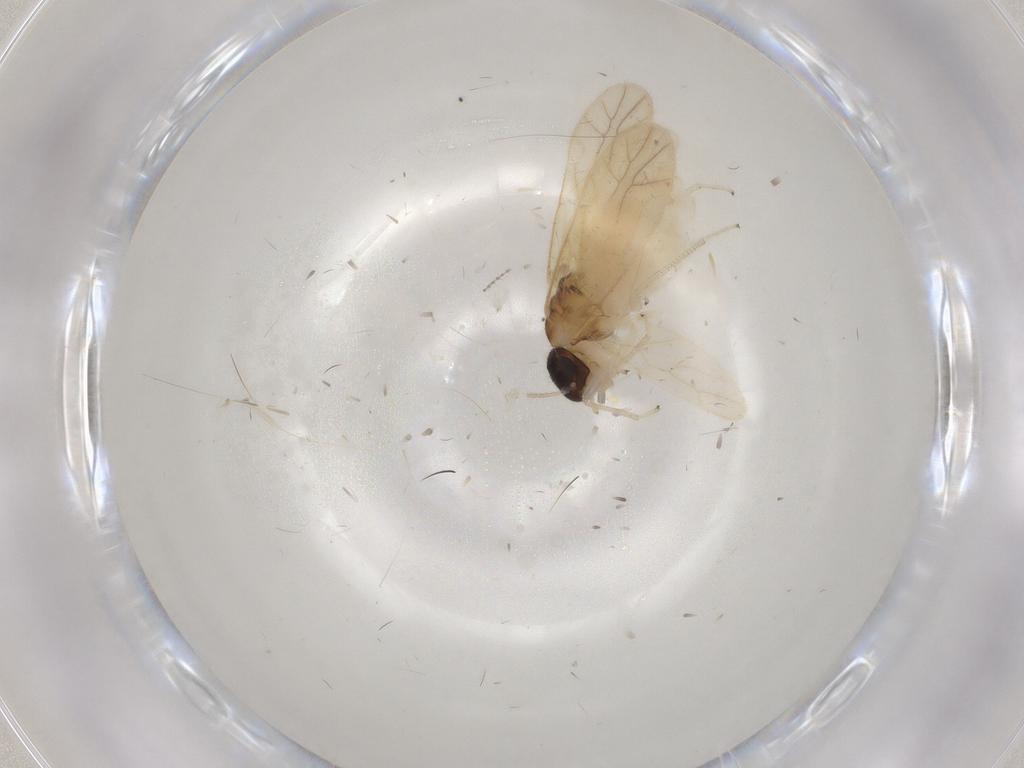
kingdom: Animalia
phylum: Arthropoda
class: Insecta
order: Psocodea
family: Caeciliusidae
